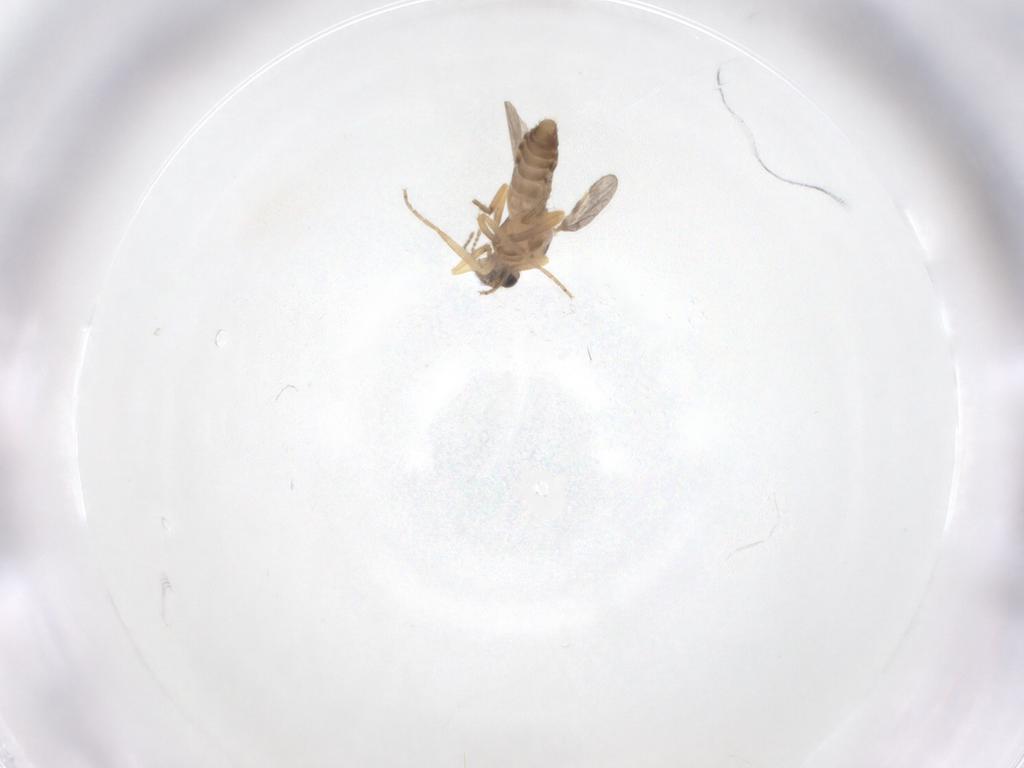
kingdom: Animalia
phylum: Arthropoda
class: Insecta
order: Diptera
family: Ceratopogonidae
